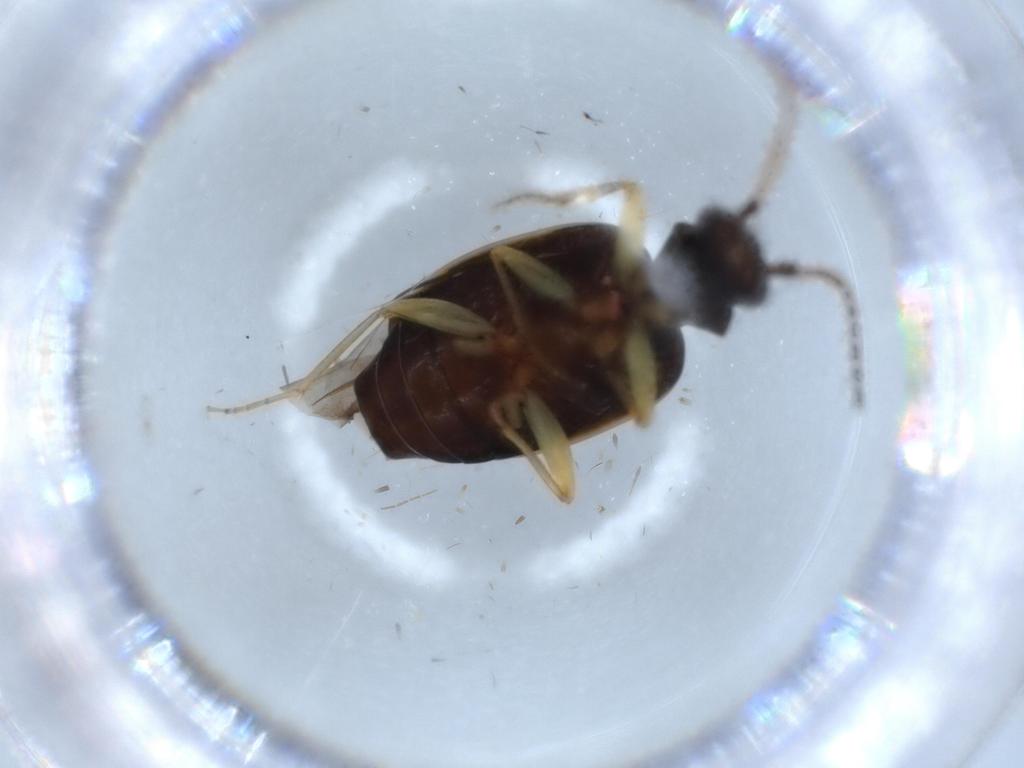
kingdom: Animalia
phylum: Arthropoda
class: Insecta
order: Coleoptera
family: Carabidae
